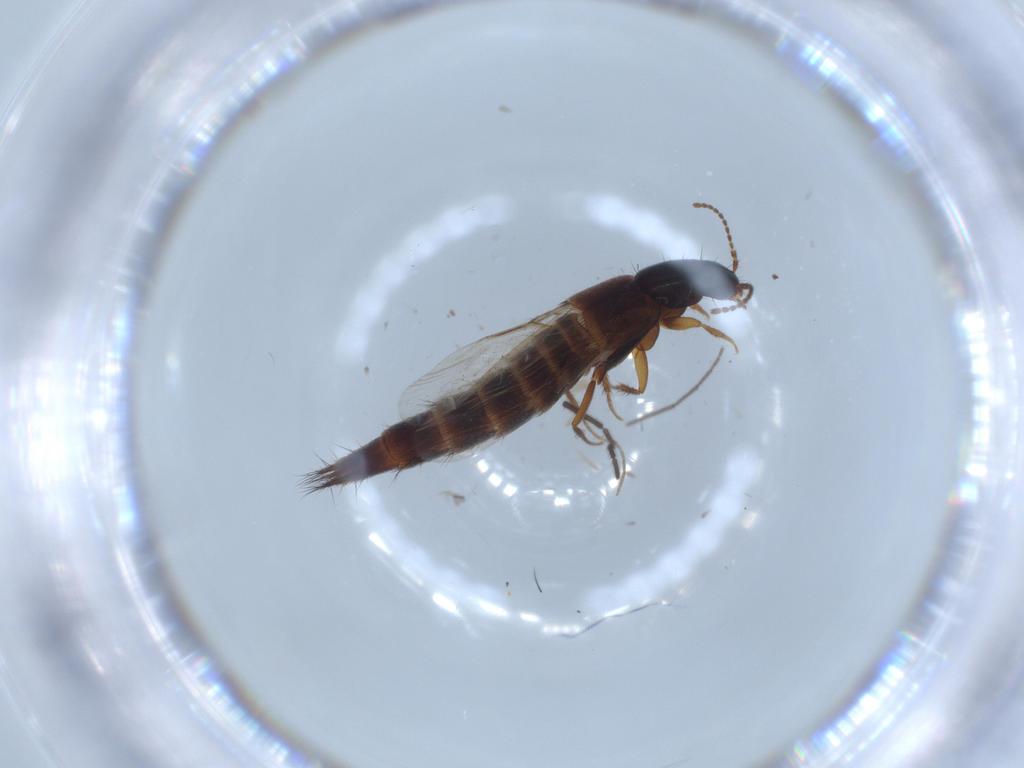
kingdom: Animalia
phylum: Arthropoda
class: Insecta
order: Coleoptera
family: Staphylinidae
